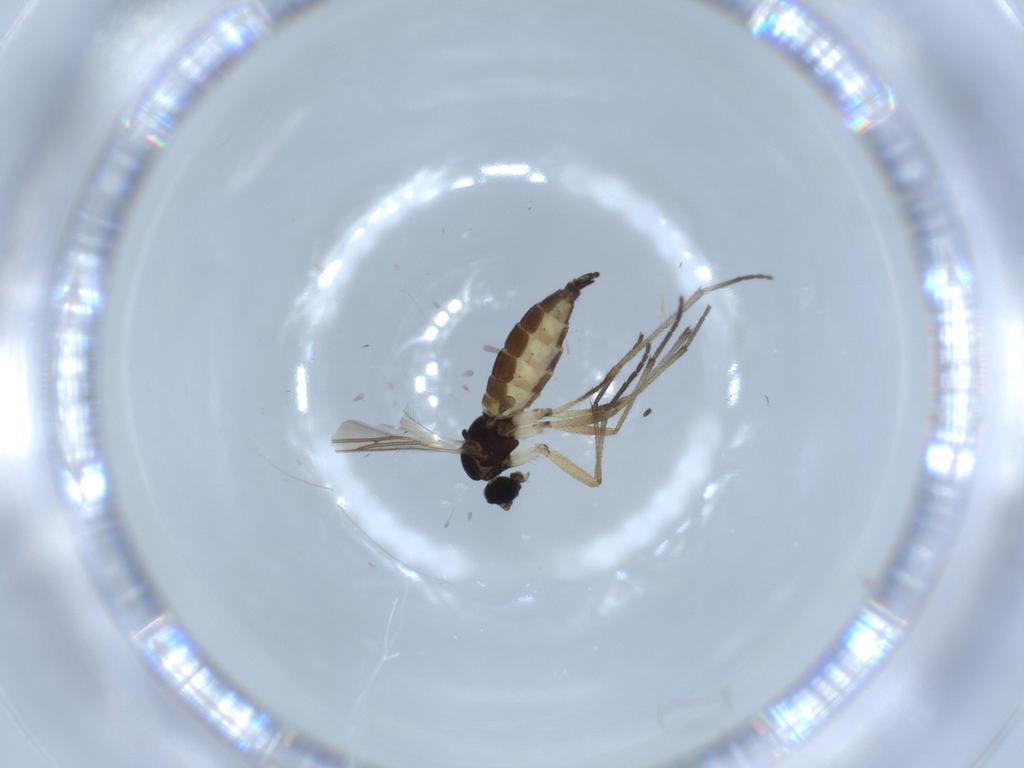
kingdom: Animalia
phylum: Arthropoda
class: Insecta
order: Diptera
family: Sciaridae
